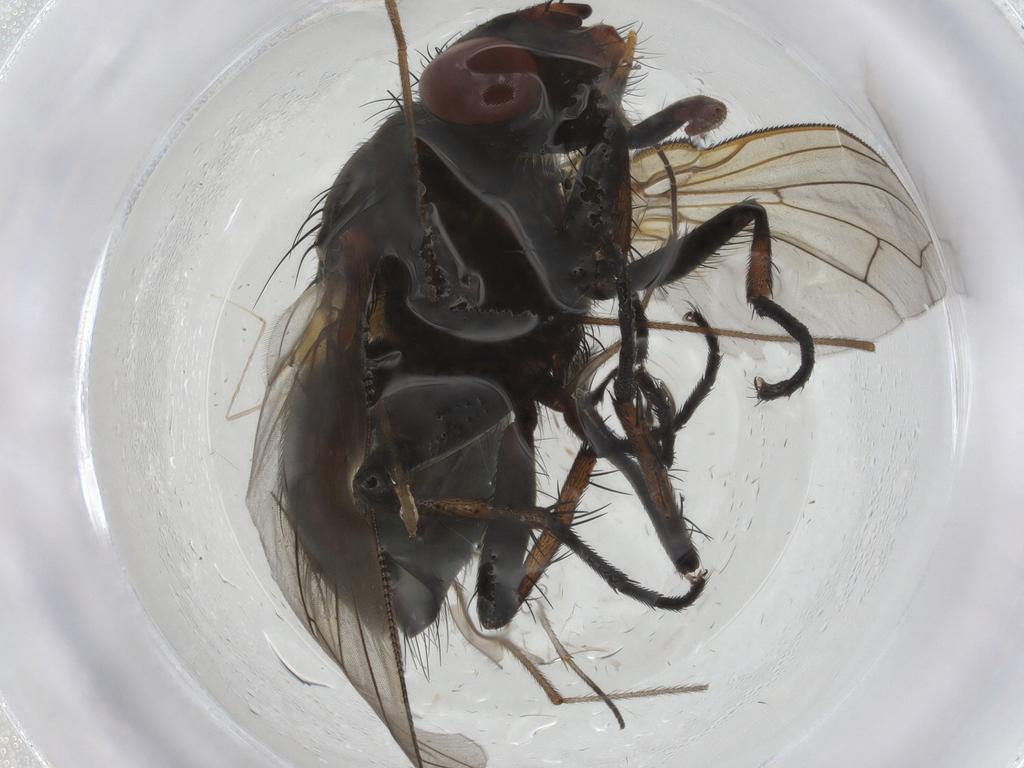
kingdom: Animalia
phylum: Arthropoda
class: Insecta
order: Diptera
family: Calliphoridae
